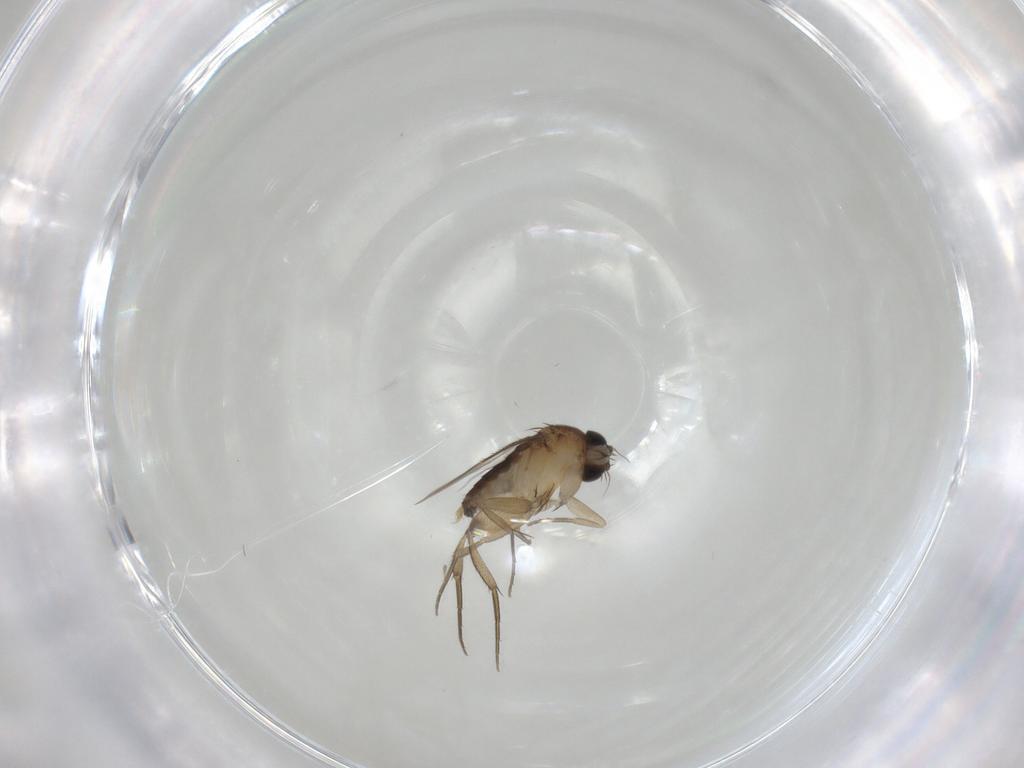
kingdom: Animalia
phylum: Arthropoda
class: Insecta
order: Diptera
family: Phoridae
